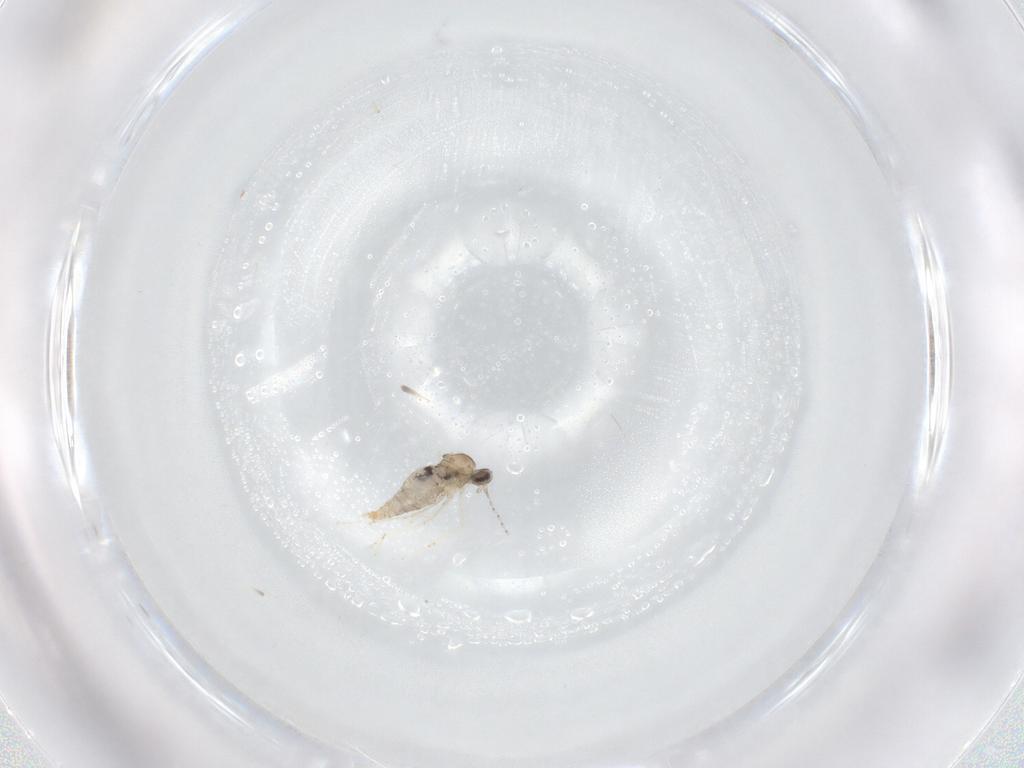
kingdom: Animalia
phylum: Arthropoda
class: Insecta
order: Diptera
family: Cecidomyiidae
